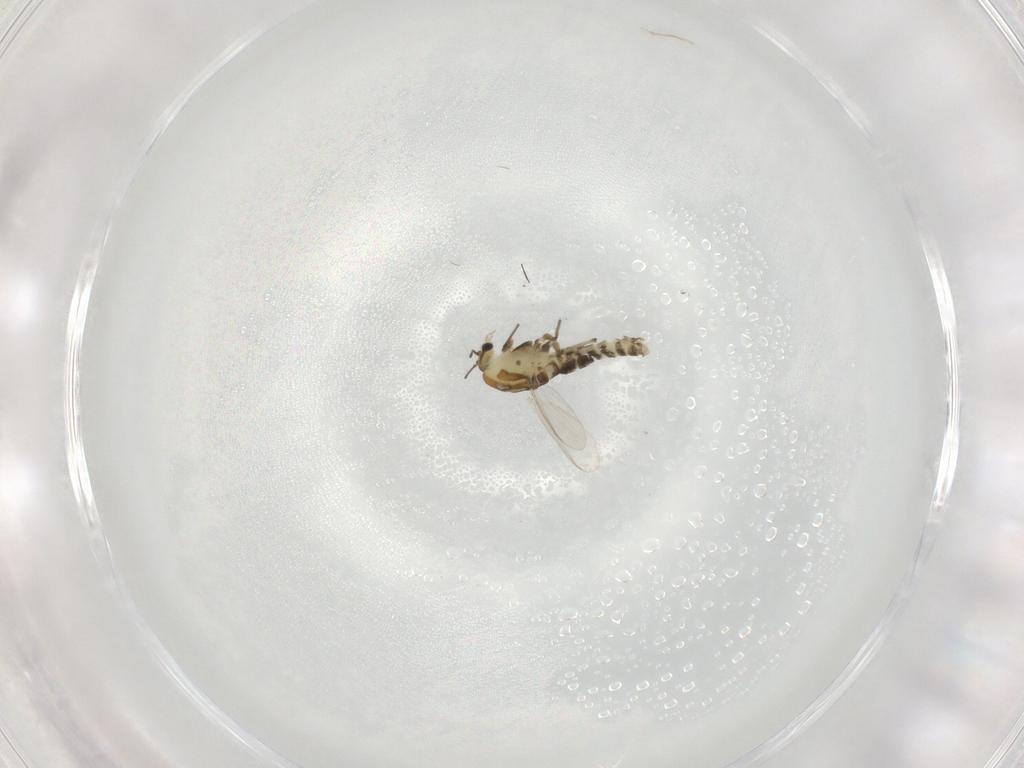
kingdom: Animalia
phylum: Arthropoda
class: Insecta
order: Diptera
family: Chironomidae
